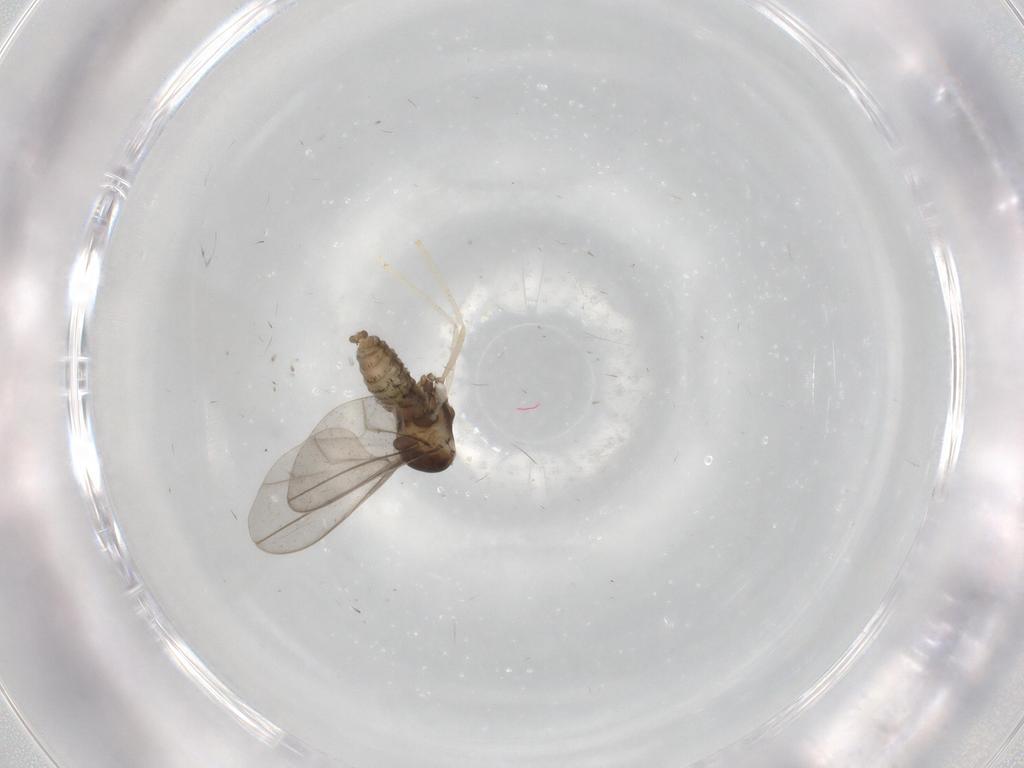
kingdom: Animalia
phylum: Arthropoda
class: Insecta
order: Diptera
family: Cecidomyiidae
